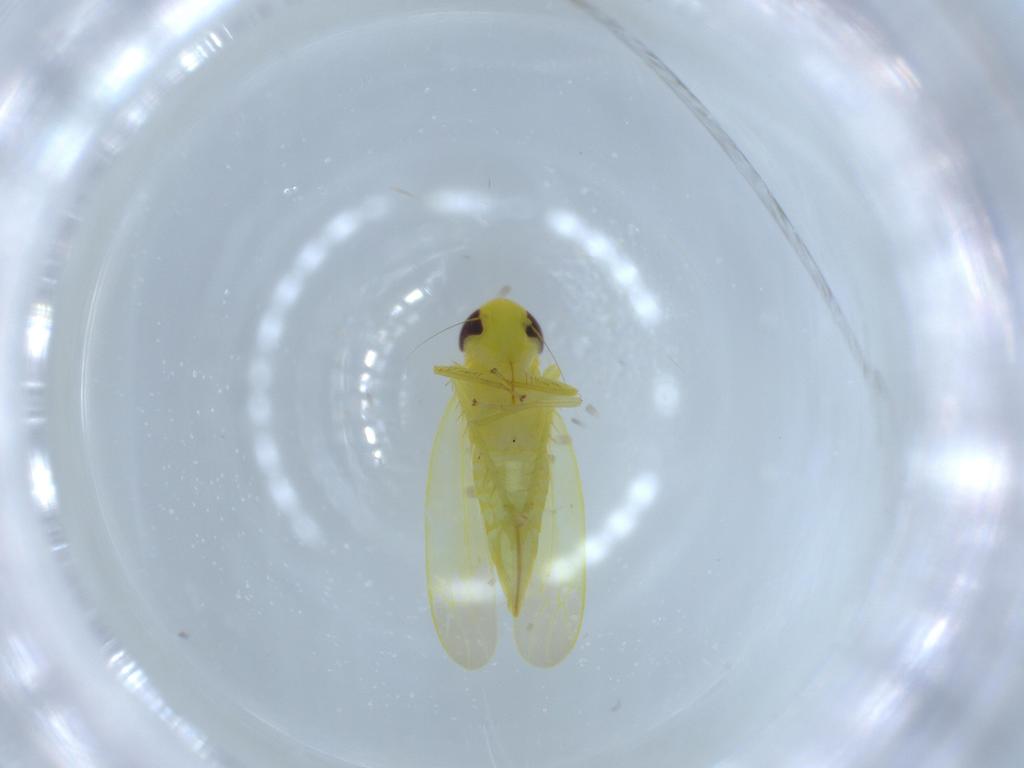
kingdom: Animalia
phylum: Arthropoda
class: Insecta
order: Hemiptera
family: Cicadellidae
